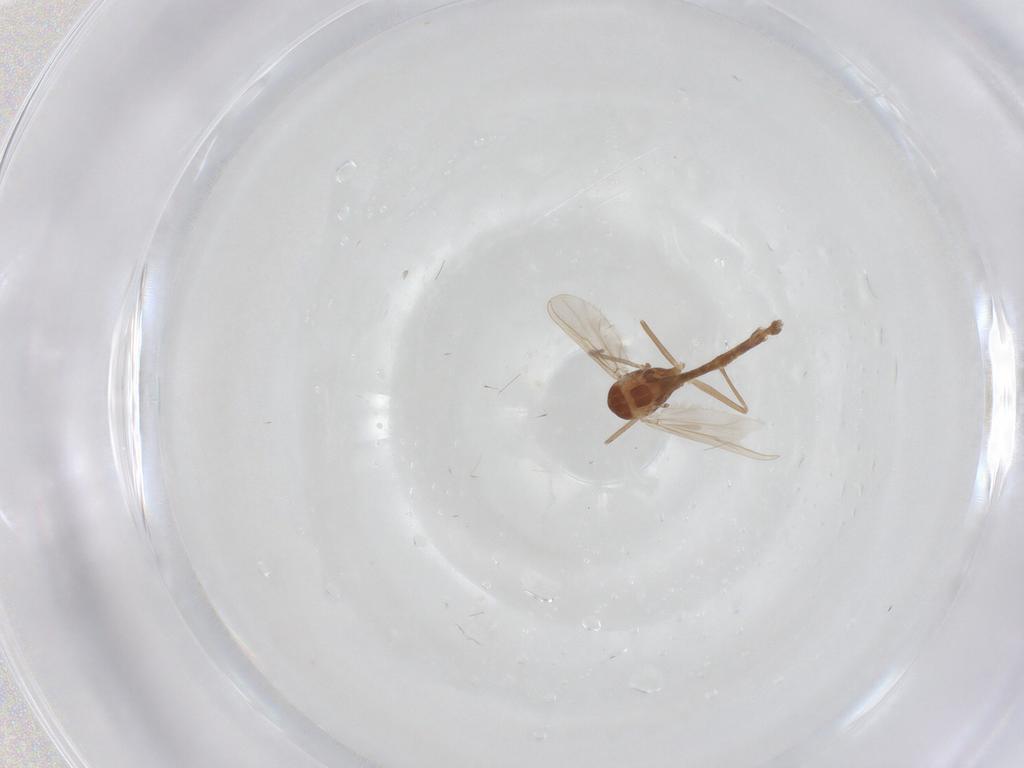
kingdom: Animalia
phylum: Arthropoda
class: Insecta
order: Diptera
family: Chironomidae
